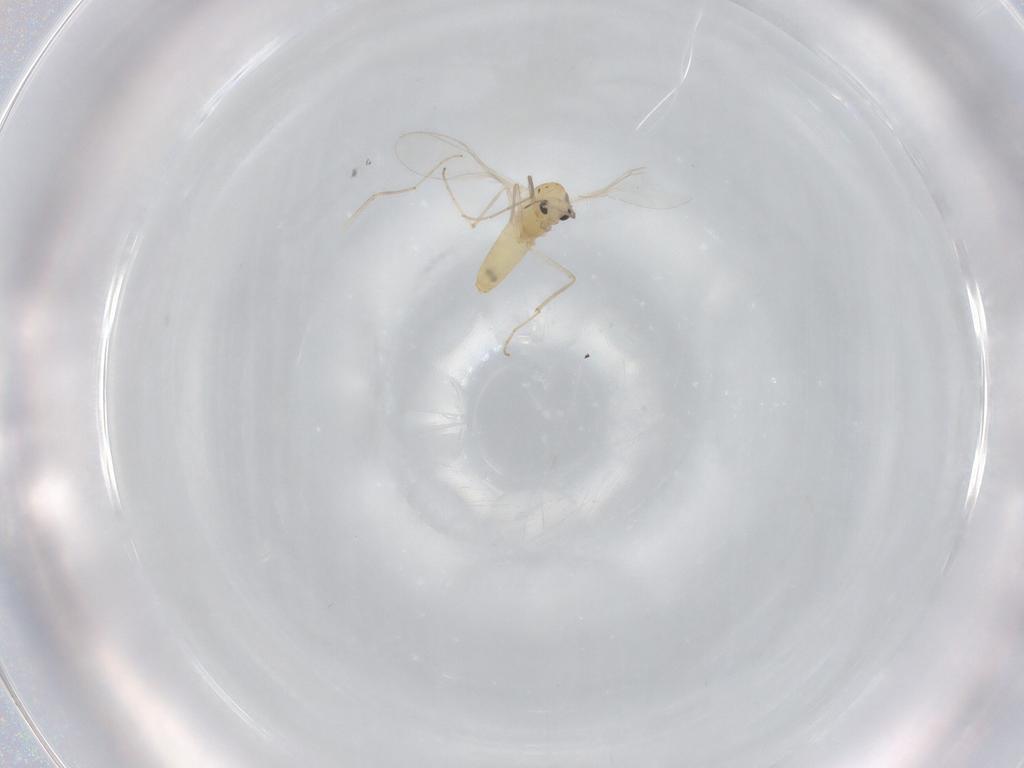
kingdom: Animalia
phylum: Arthropoda
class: Insecta
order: Diptera
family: Chironomidae
